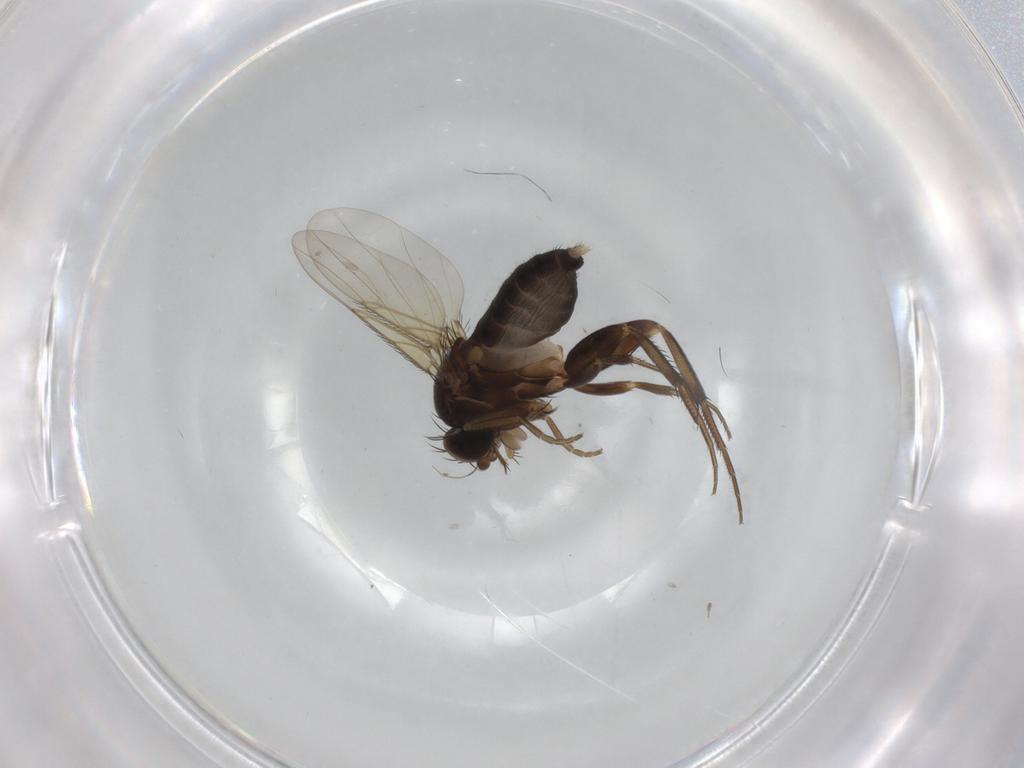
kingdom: Animalia
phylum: Arthropoda
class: Insecta
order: Diptera
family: Phoridae
